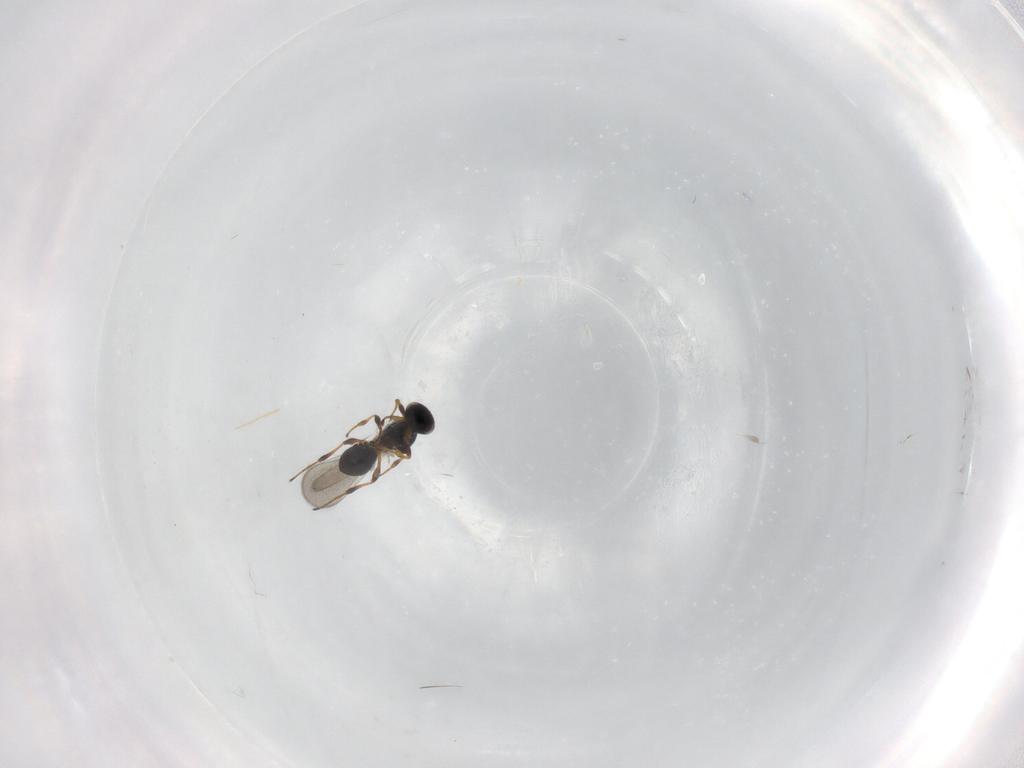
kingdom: Animalia
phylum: Arthropoda
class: Insecta
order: Hymenoptera
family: Platygastridae
